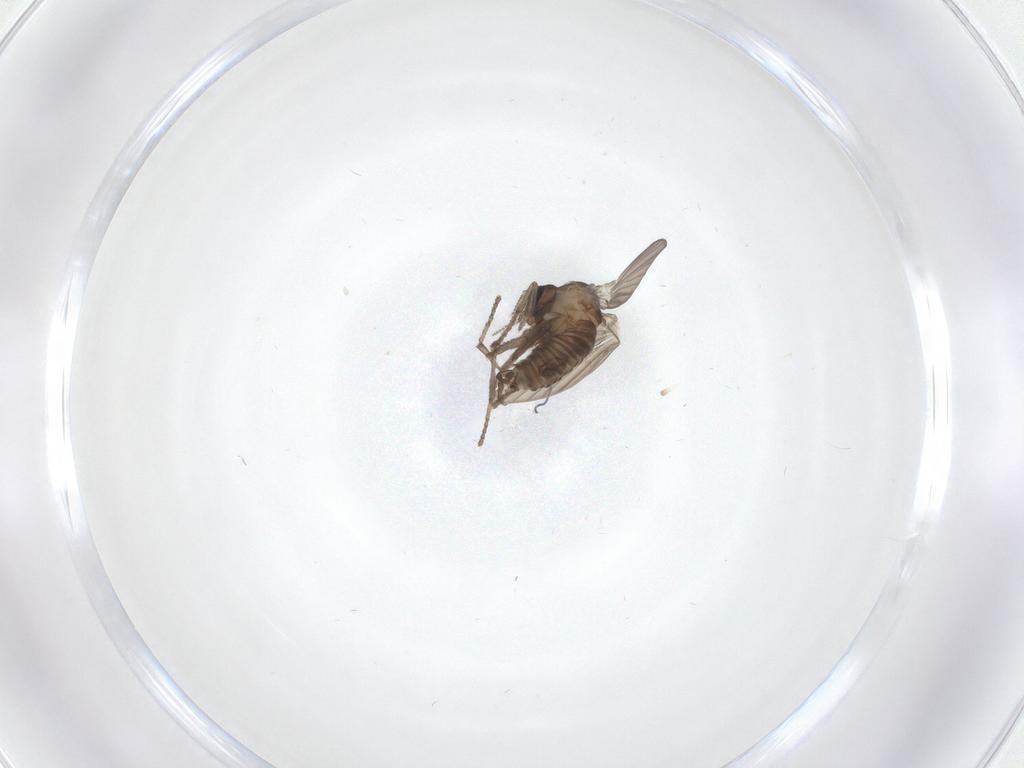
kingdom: Animalia
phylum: Arthropoda
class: Insecta
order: Diptera
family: Psychodidae
